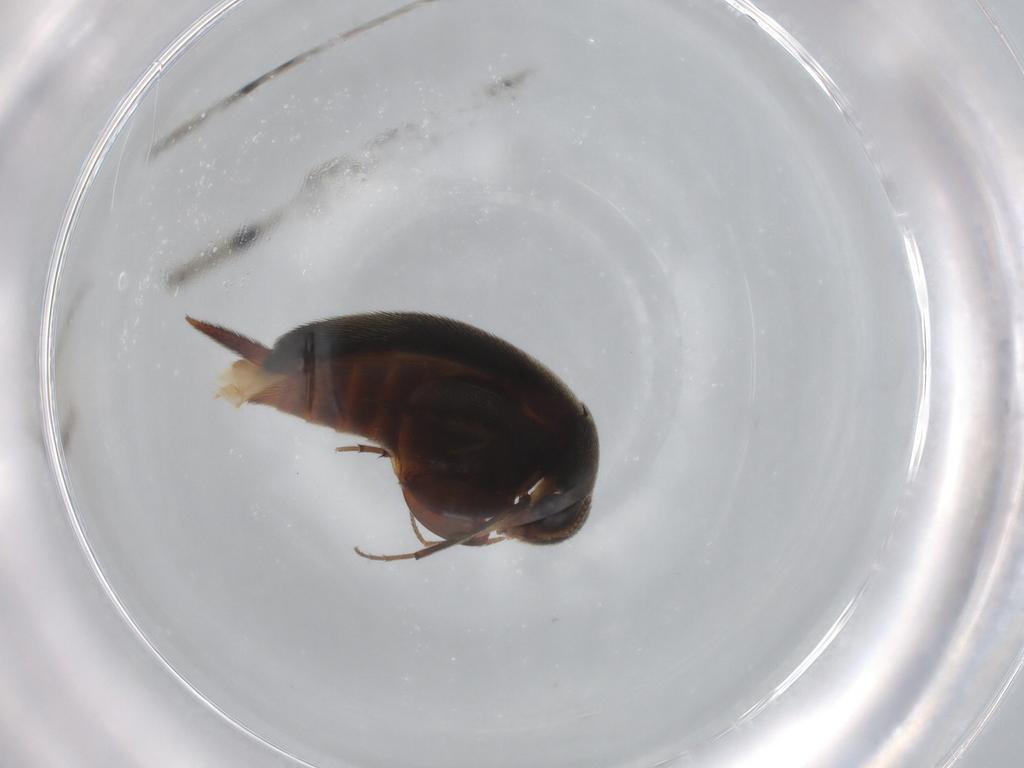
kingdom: Animalia
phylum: Arthropoda
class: Insecta
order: Coleoptera
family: Mordellidae
